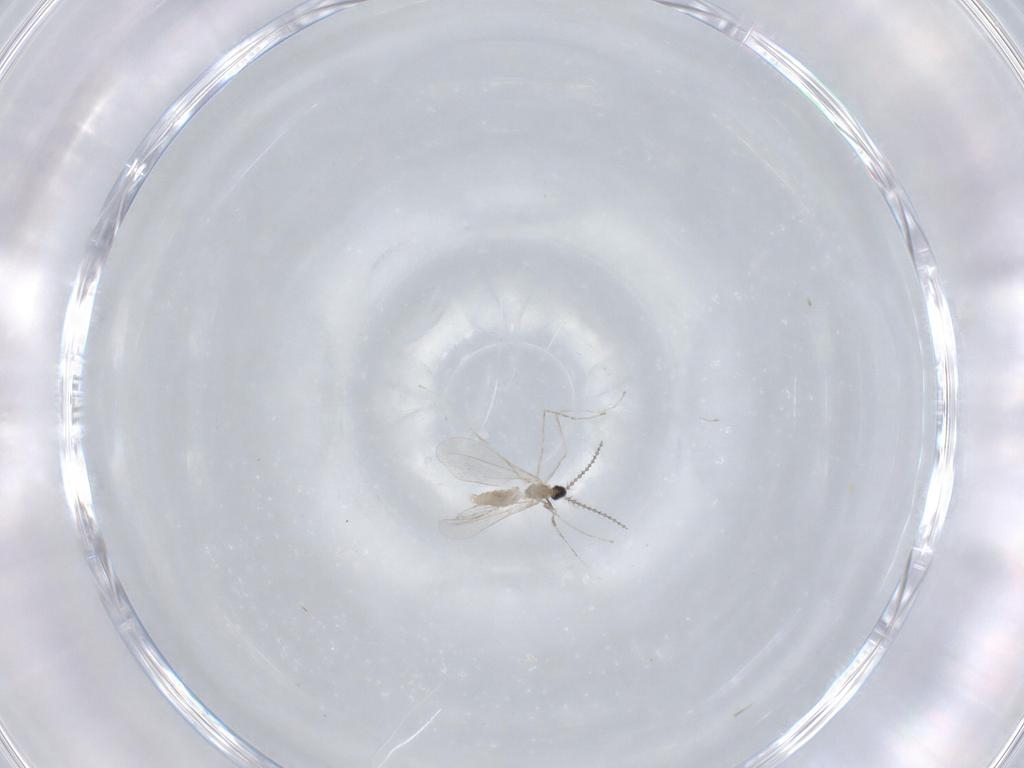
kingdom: Animalia
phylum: Arthropoda
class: Insecta
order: Diptera
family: Cecidomyiidae
